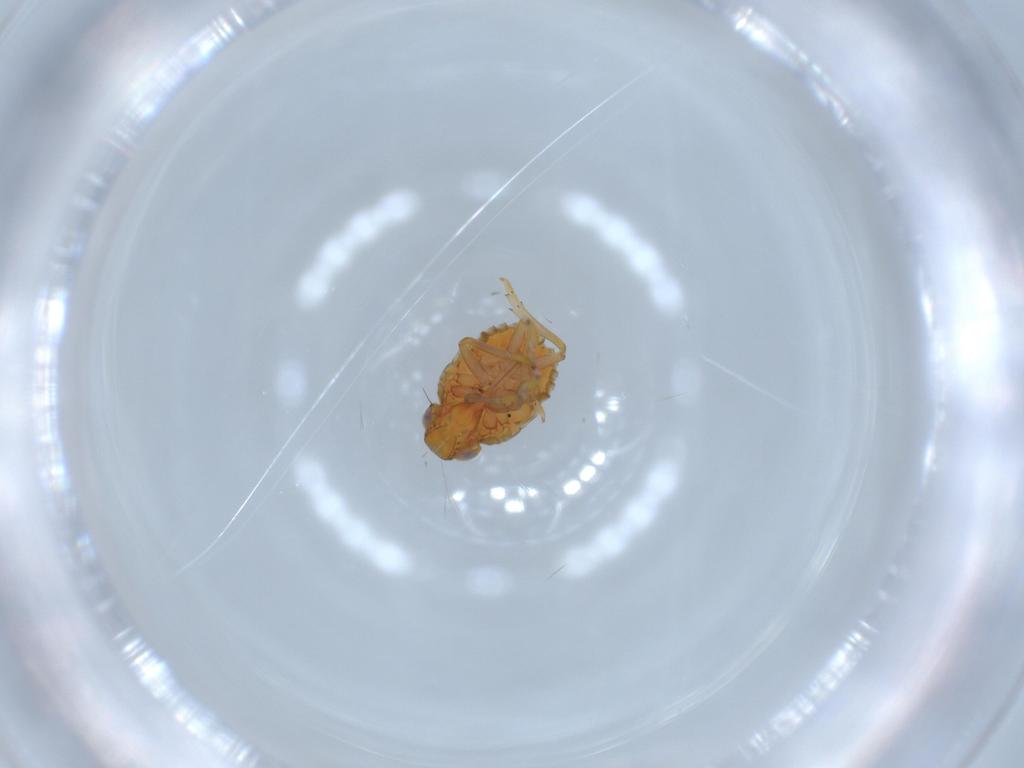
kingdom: Animalia
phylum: Arthropoda
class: Insecta
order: Hemiptera
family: Issidae
